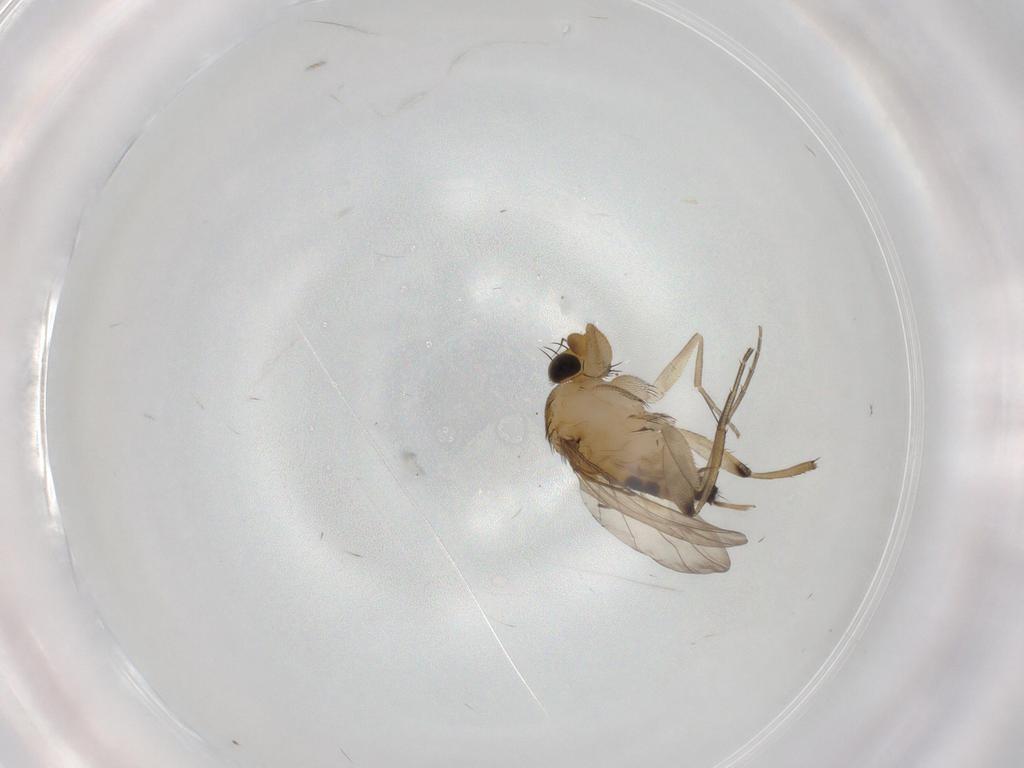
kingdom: Animalia
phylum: Arthropoda
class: Insecta
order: Diptera
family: Phoridae
